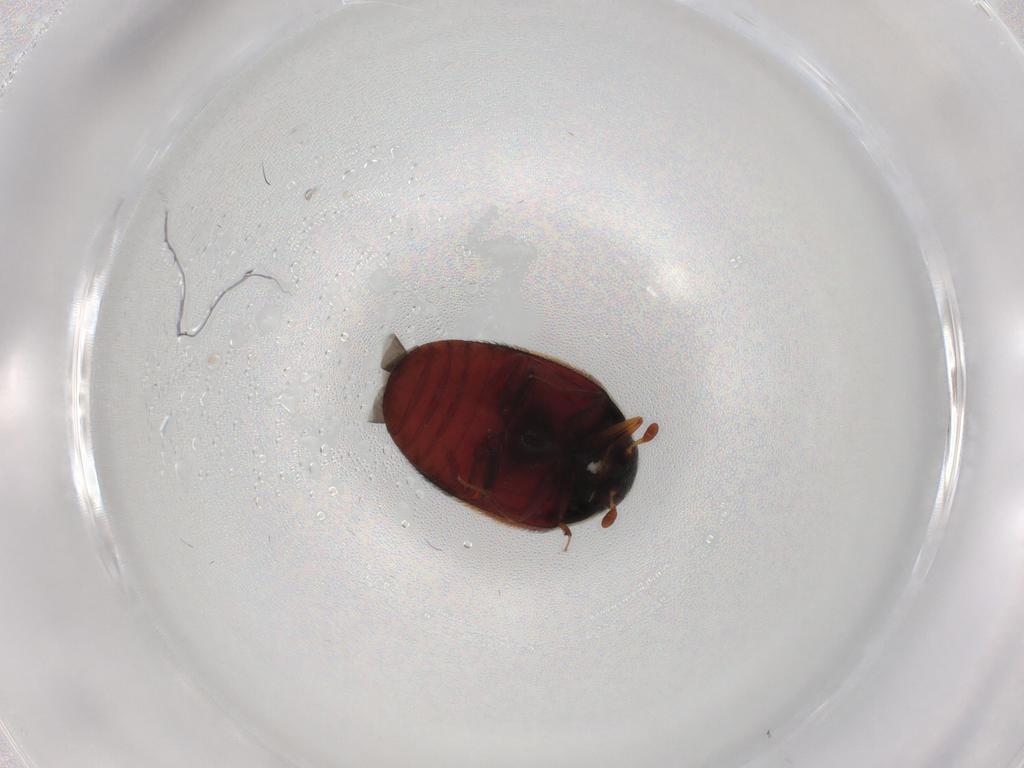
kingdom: Animalia
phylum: Arthropoda
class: Insecta
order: Coleoptera
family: Dermestidae
